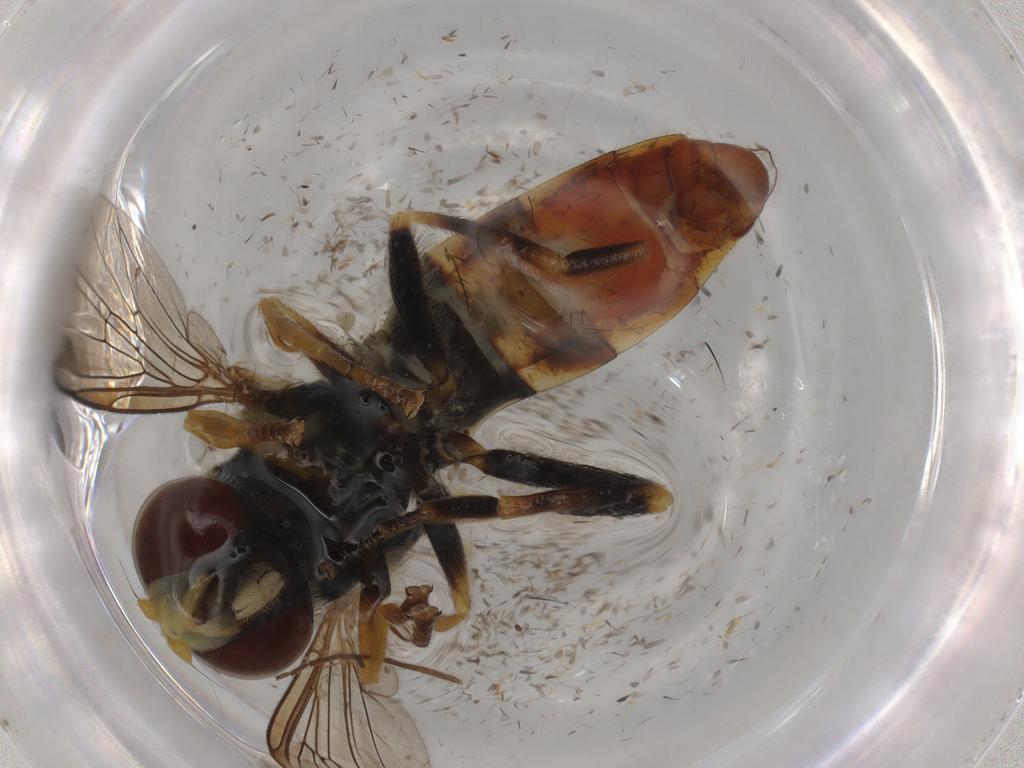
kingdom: Animalia
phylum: Arthropoda
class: Insecta
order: Diptera
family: Syrphidae
